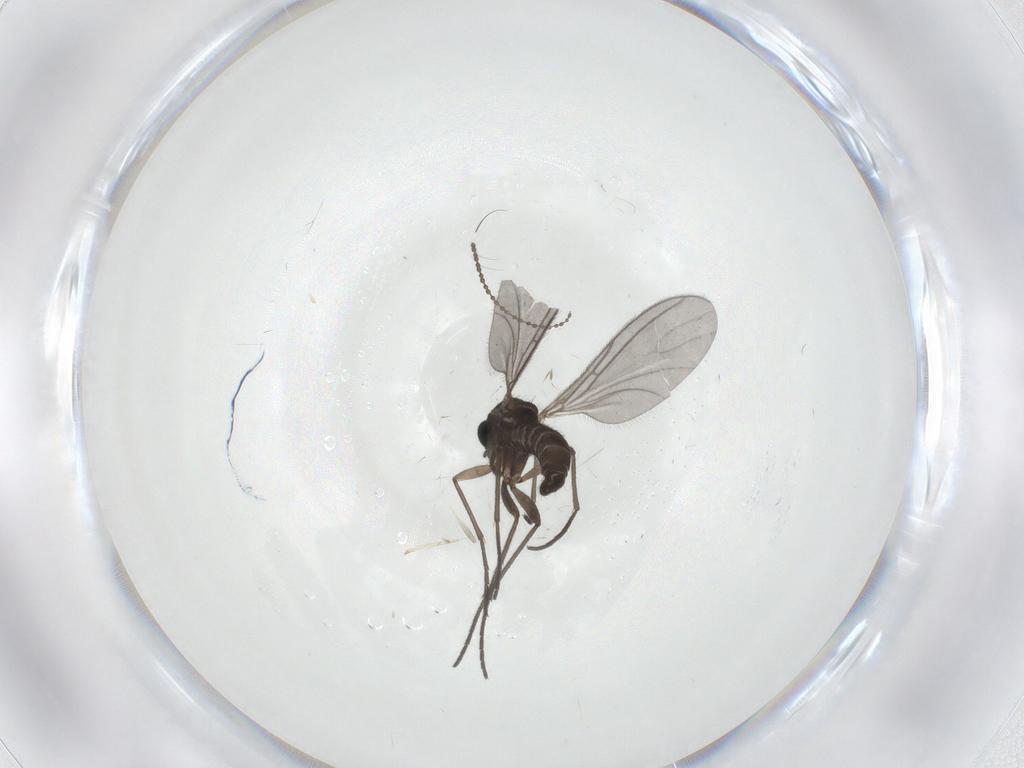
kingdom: Animalia
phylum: Arthropoda
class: Insecta
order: Diptera
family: Sciaridae
